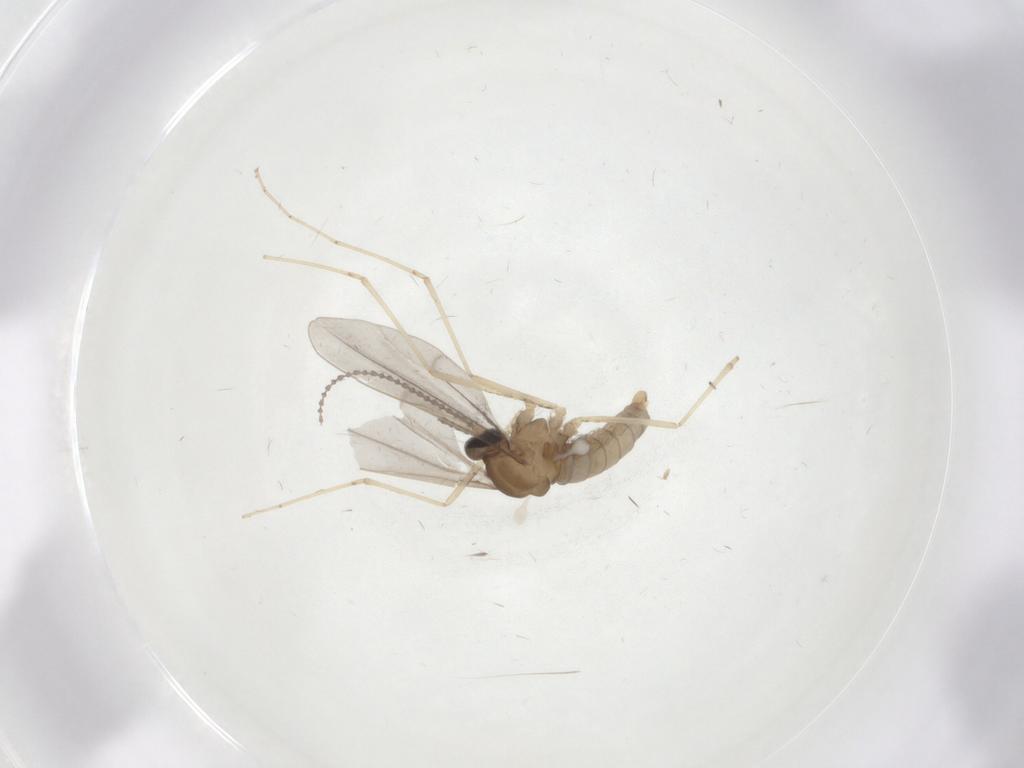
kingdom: Animalia
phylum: Arthropoda
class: Insecta
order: Diptera
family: Cecidomyiidae
